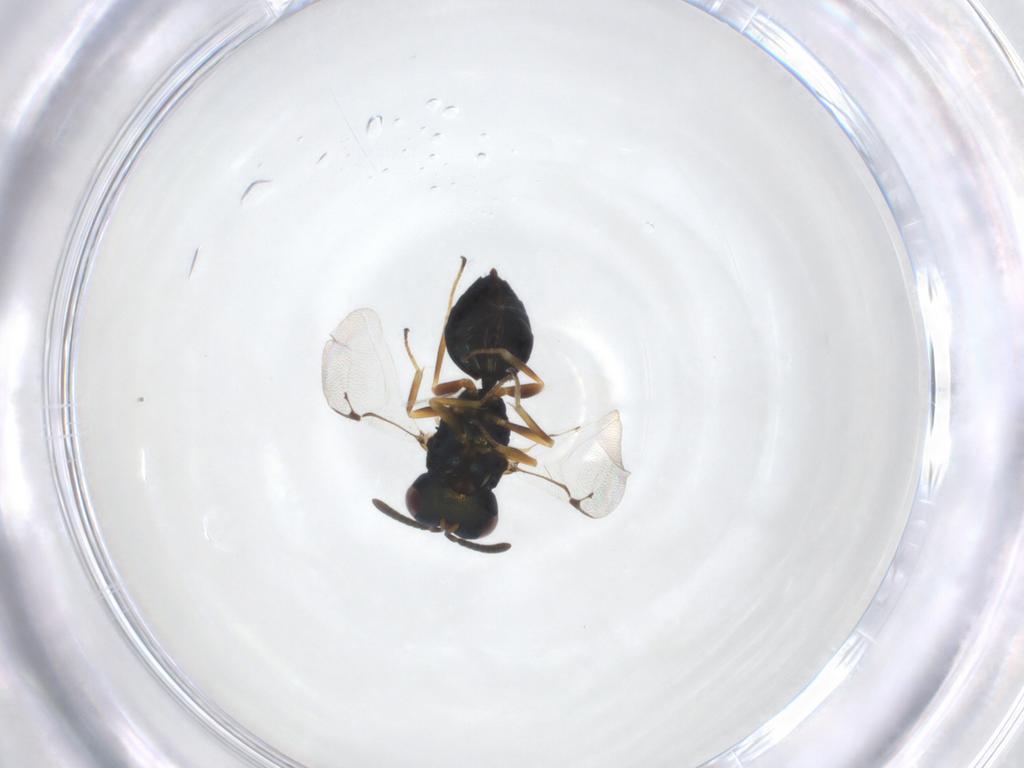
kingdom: Animalia
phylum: Arthropoda
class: Insecta
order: Hymenoptera
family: Pteromalidae
